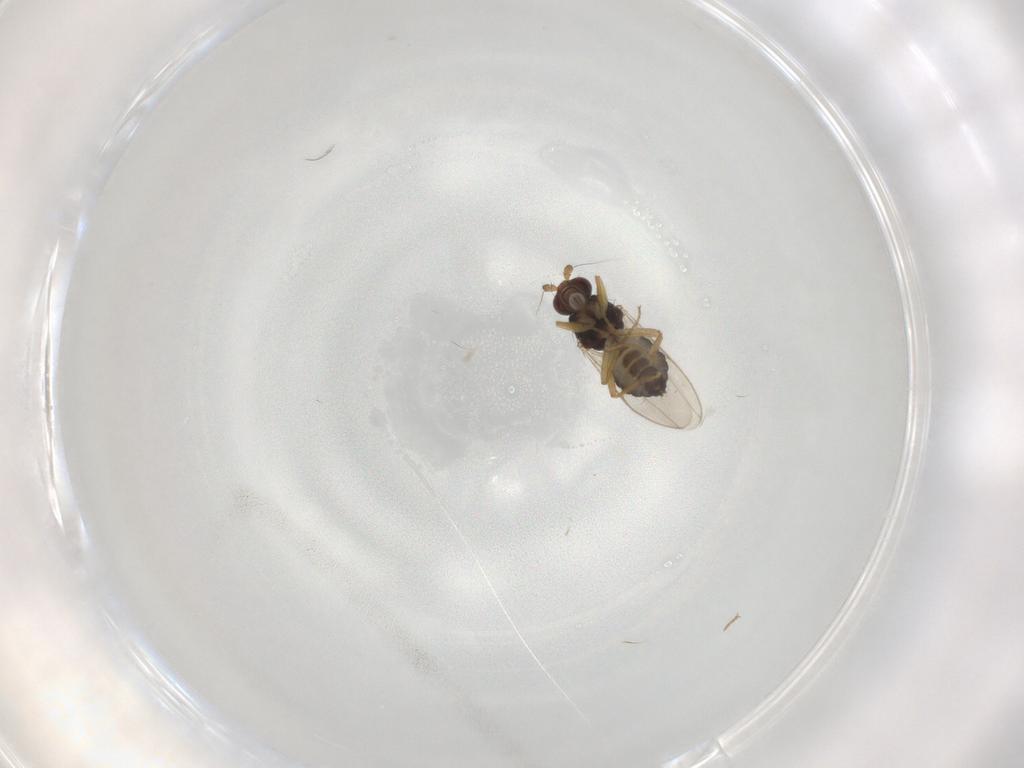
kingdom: Animalia
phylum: Arthropoda
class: Insecta
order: Diptera
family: Sphaeroceridae
